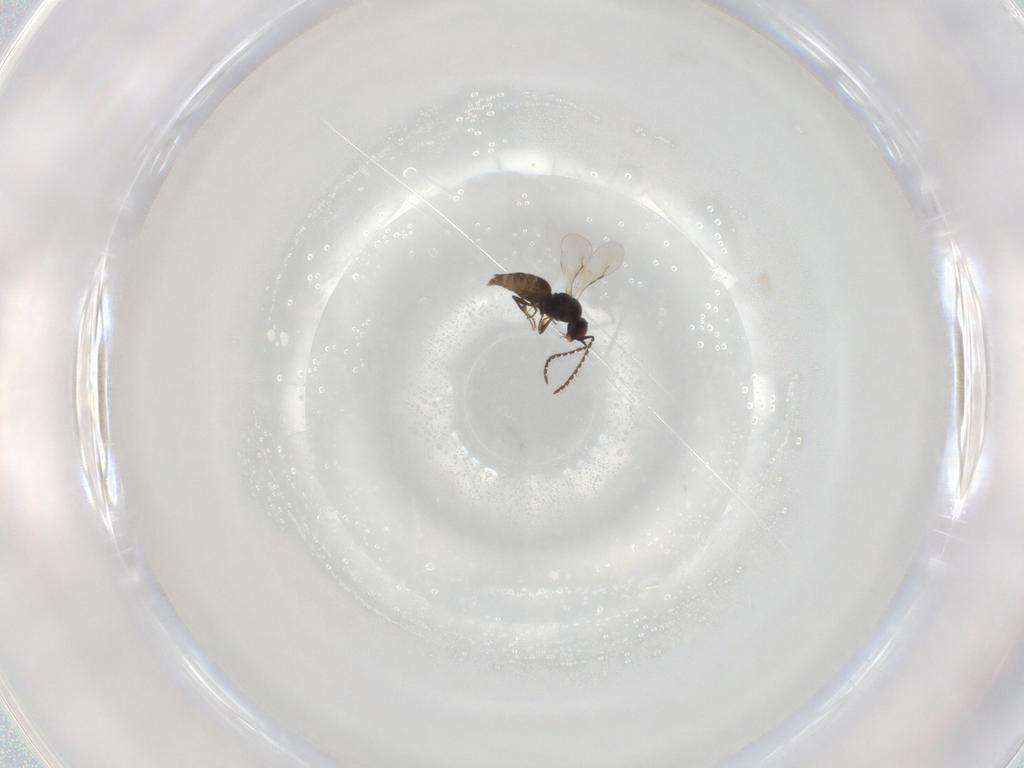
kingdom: Animalia
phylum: Arthropoda
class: Insecta
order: Hymenoptera
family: Ceraphronidae
